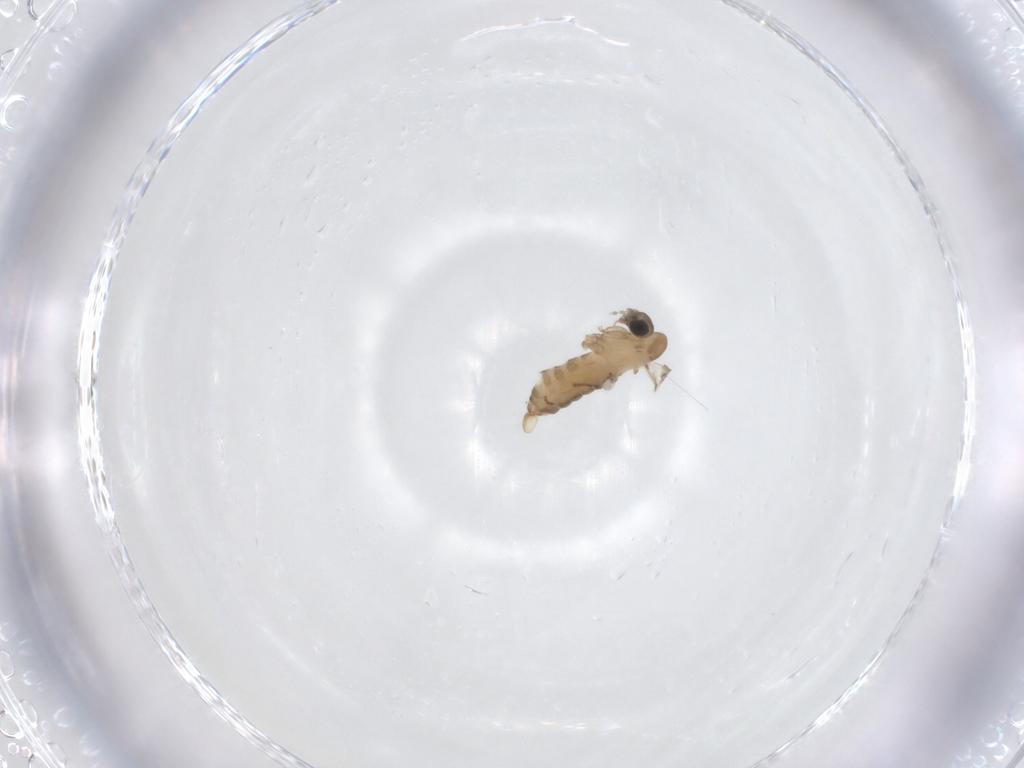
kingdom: Animalia
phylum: Arthropoda
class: Insecta
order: Diptera
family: Psychodidae
